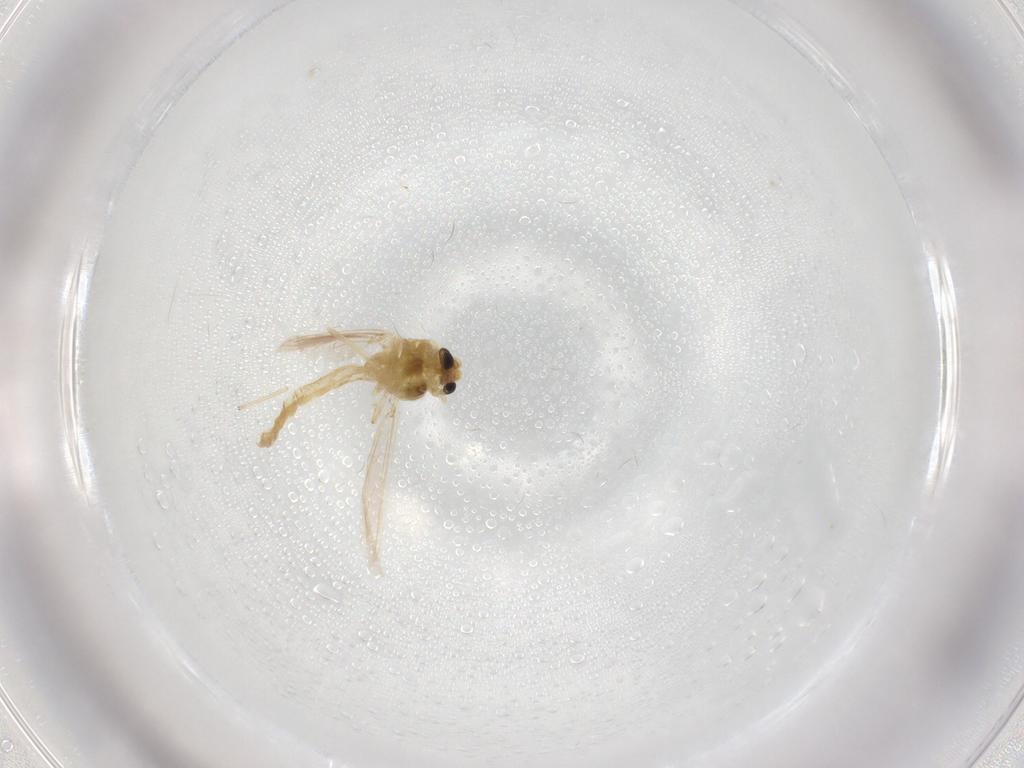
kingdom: Animalia
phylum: Arthropoda
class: Insecta
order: Diptera
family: Chironomidae
